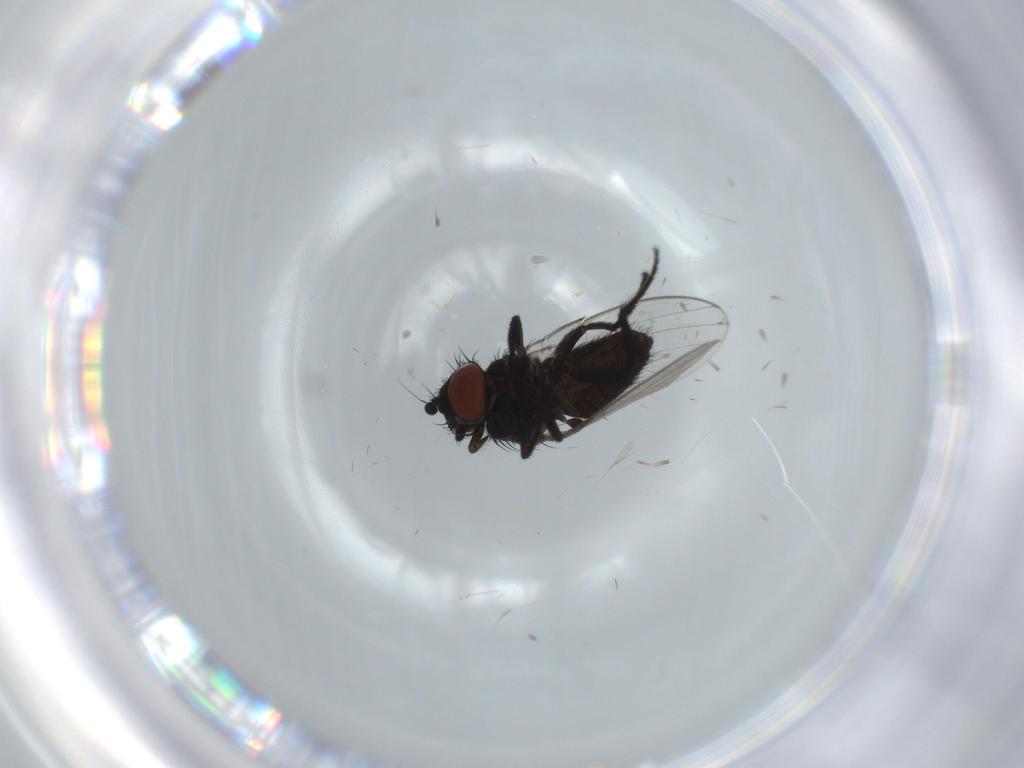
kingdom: Animalia
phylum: Arthropoda
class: Insecta
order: Diptera
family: Milichiidae
